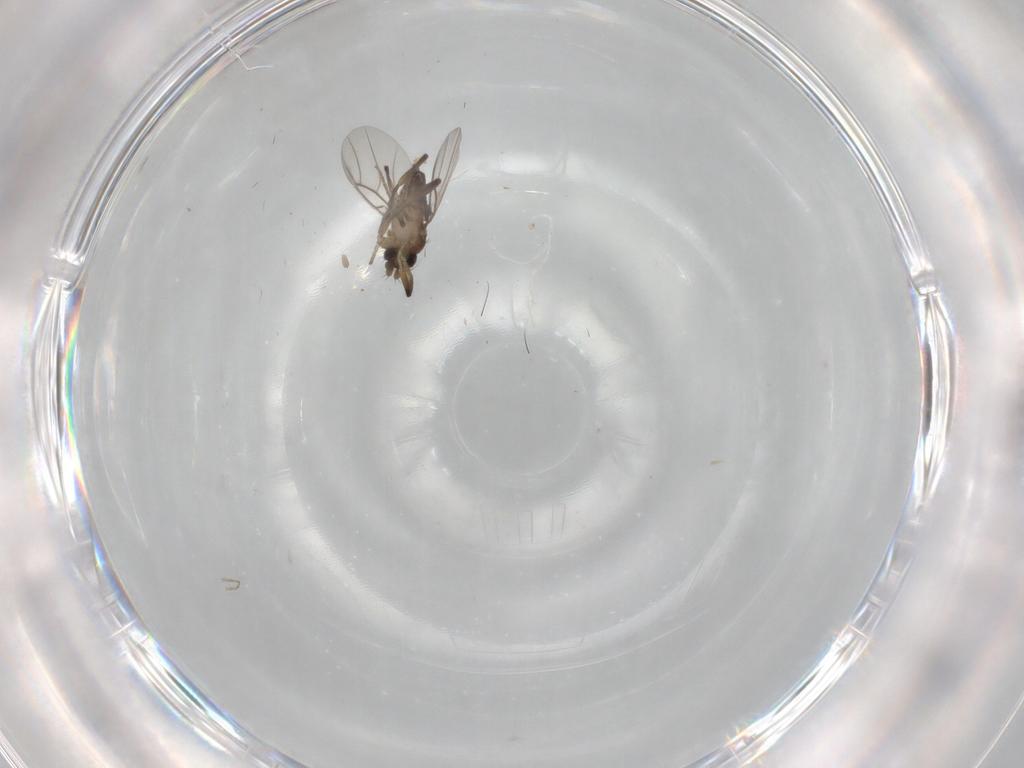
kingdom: Animalia
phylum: Arthropoda
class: Insecta
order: Diptera
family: Phoridae
